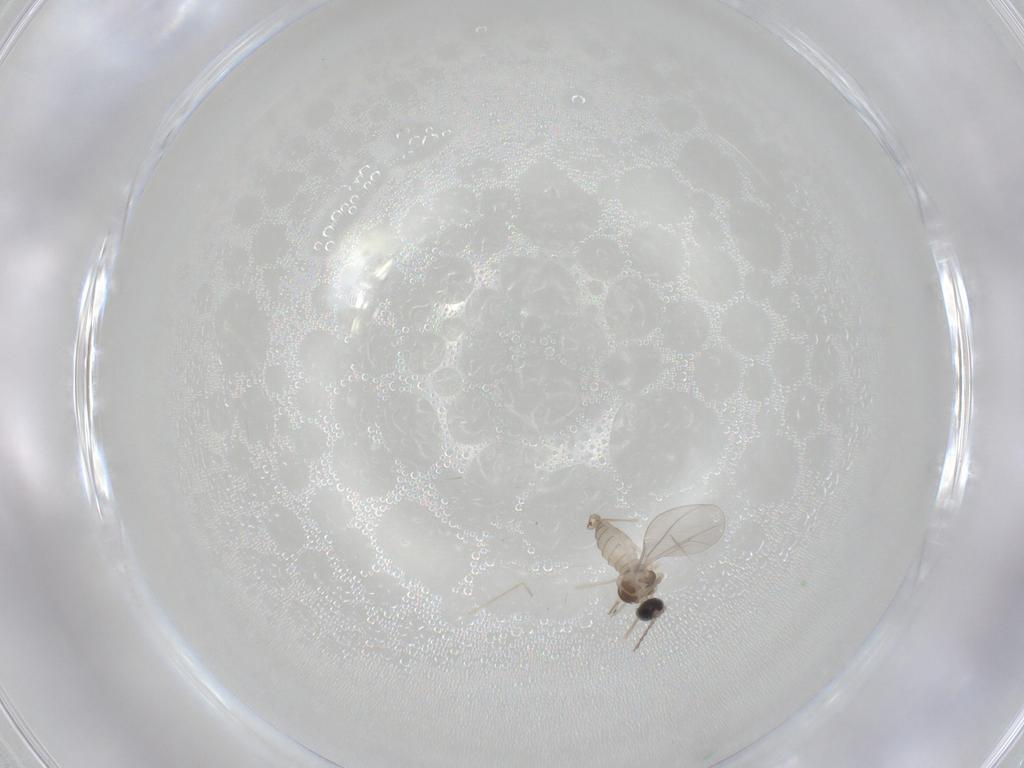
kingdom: Animalia
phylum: Arthropoda
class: Insecta
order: Diptera
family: Cecidomyiidae
